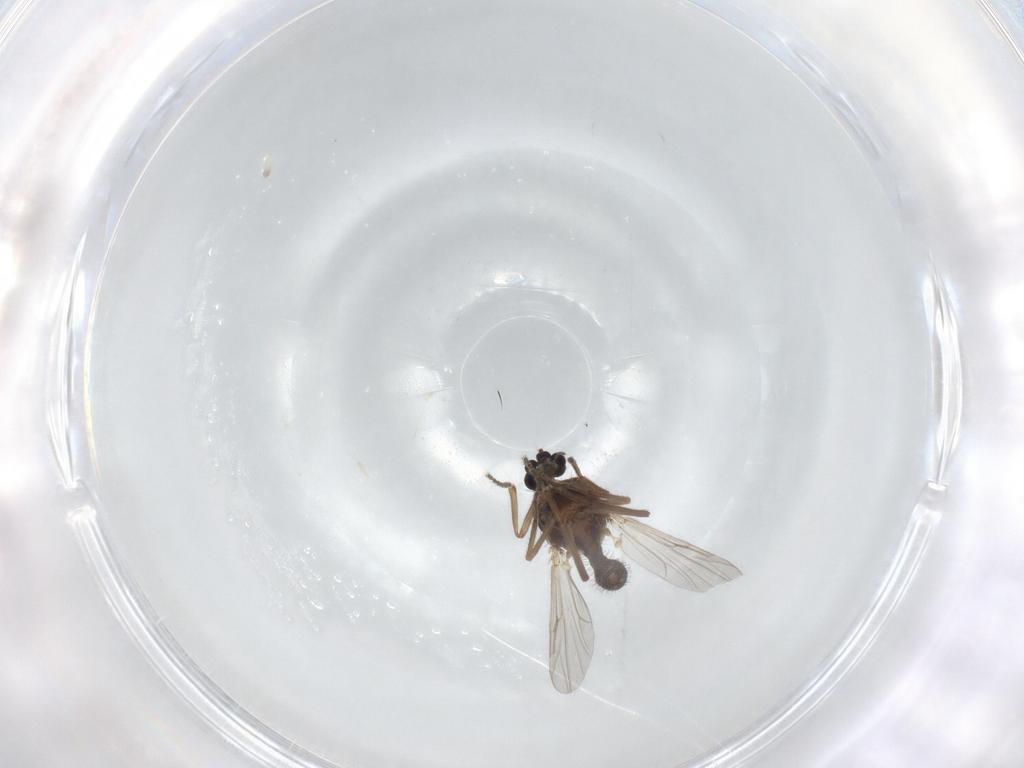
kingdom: Animalia
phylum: Arthropoda
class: Insecta
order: Diptera
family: Ceratopogonidae
